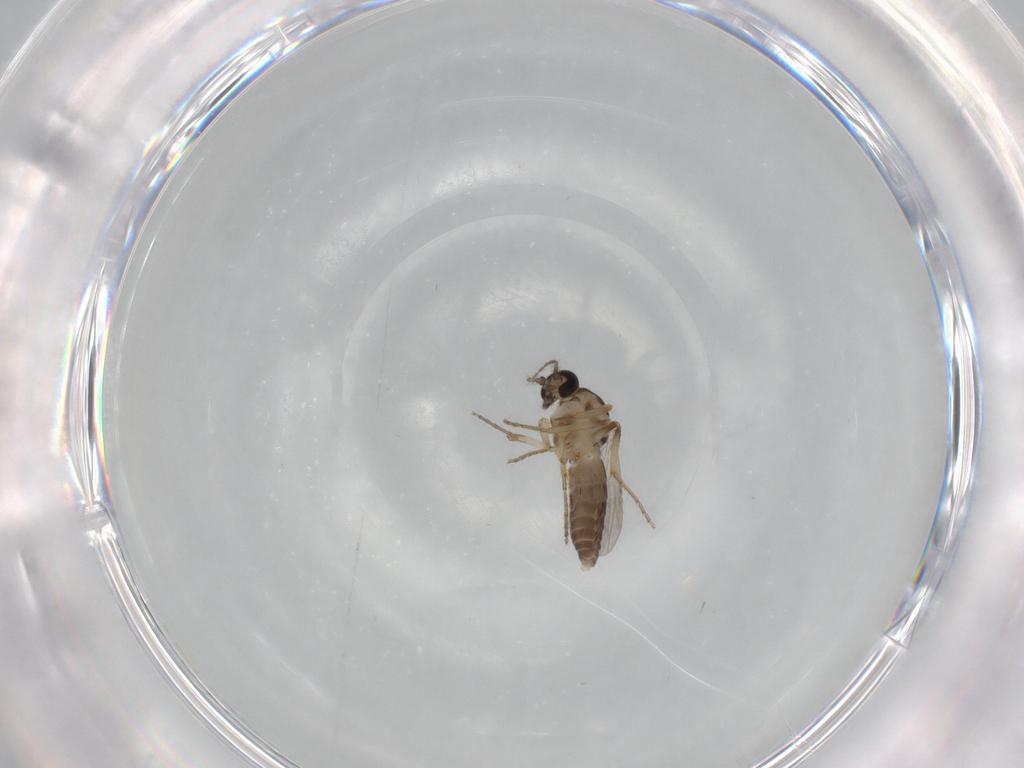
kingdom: Animalia
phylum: Arthropoda
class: Insecta
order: Diptera
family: Ceratopogonidae
